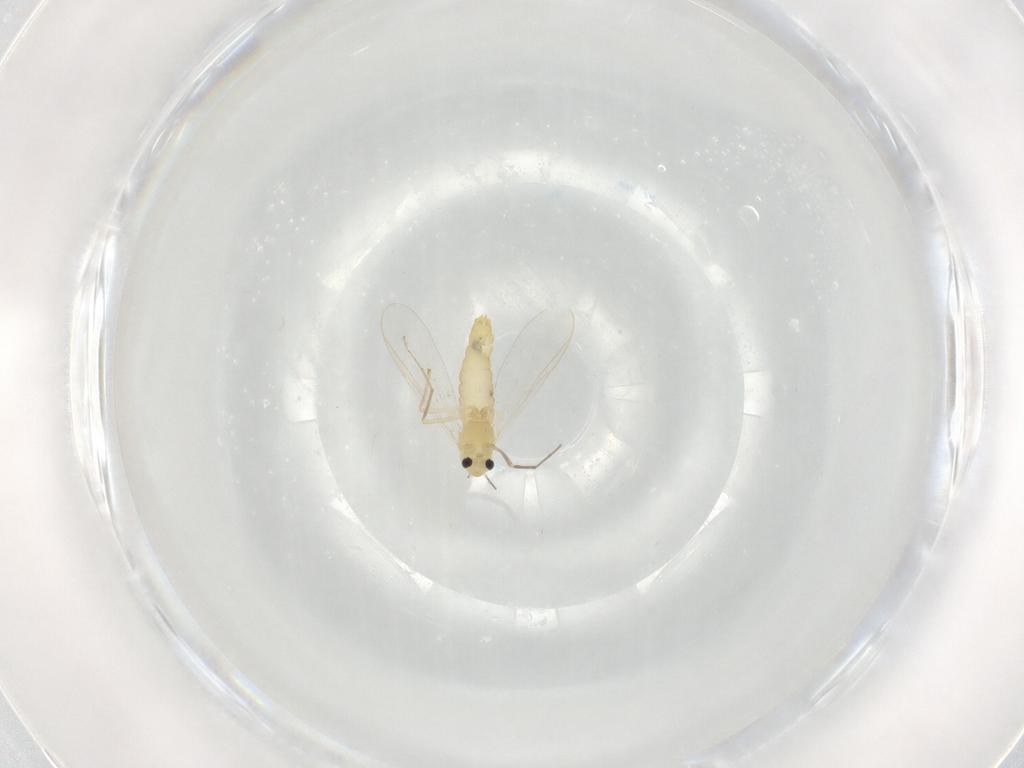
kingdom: Animalia
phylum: Arthropoda
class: Insecta
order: Diptera
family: Chironomidae
